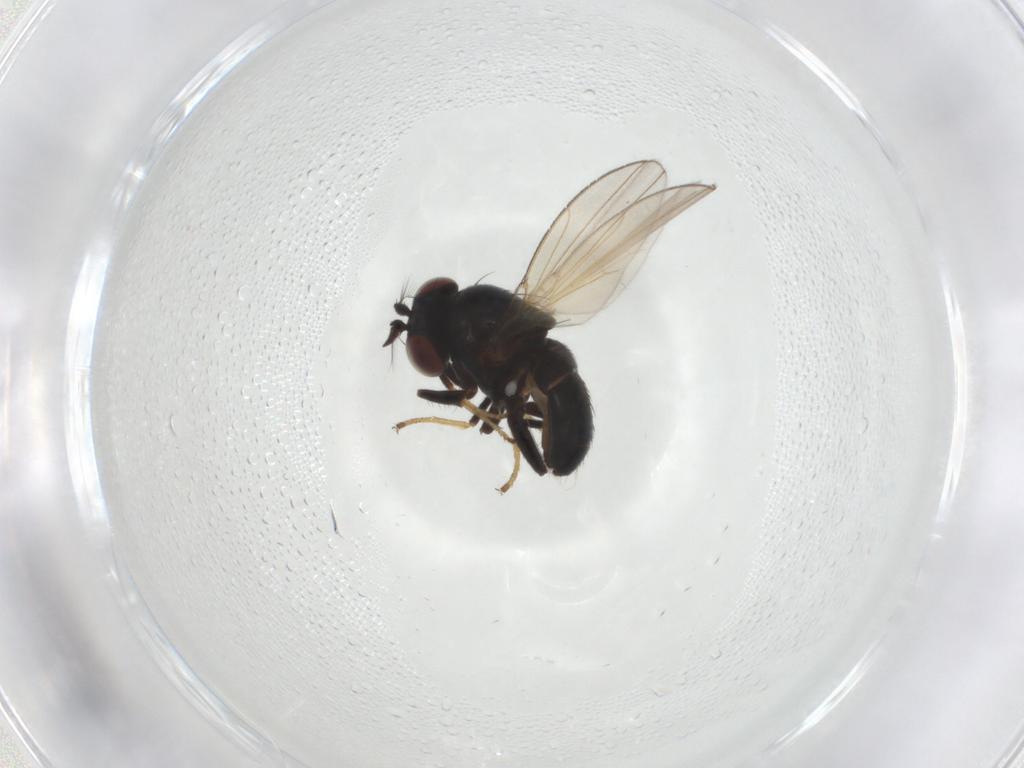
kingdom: Animalia
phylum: Arthropoda
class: Insecta
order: Diptera
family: Ephydridae
